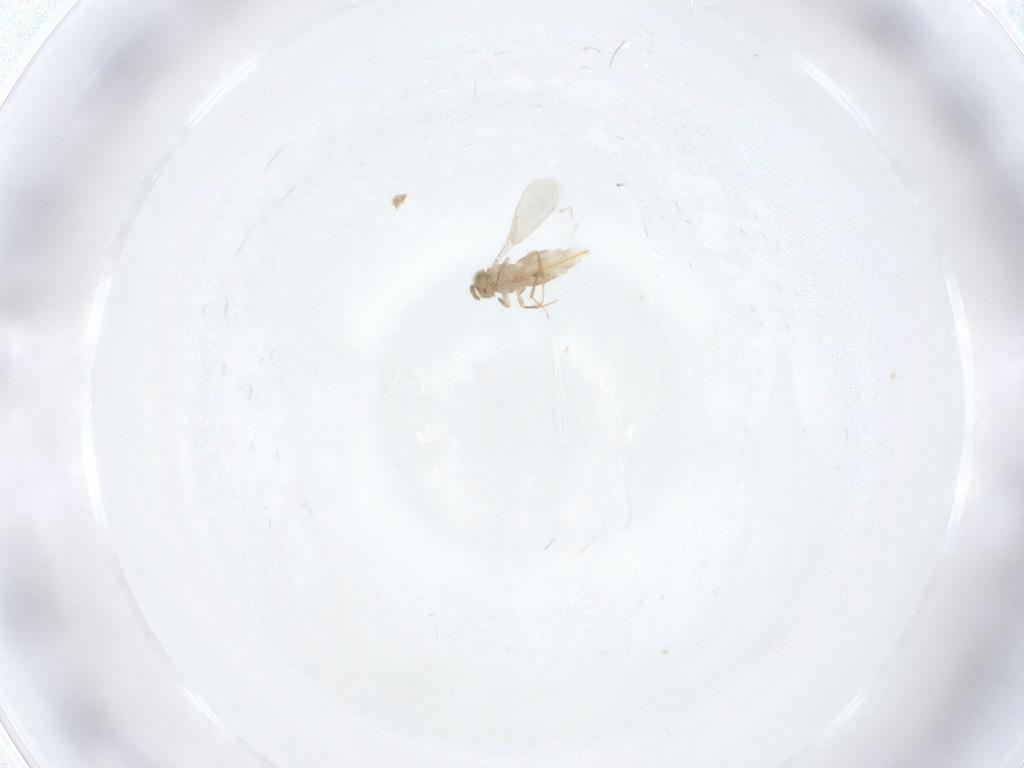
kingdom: Animalia
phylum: Arthropoda
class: Insecta
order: Hymenoptera
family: Aphelinidae
